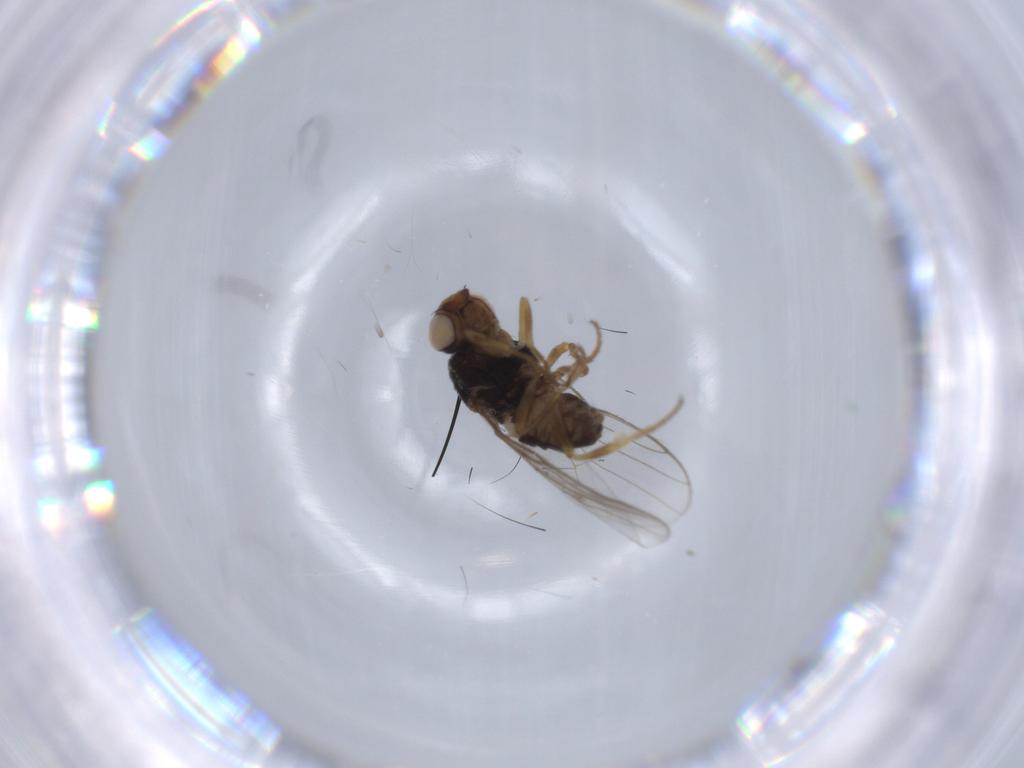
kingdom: Animalia
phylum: Arthropoda
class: Insecta
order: Diptera
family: Chloropidae
